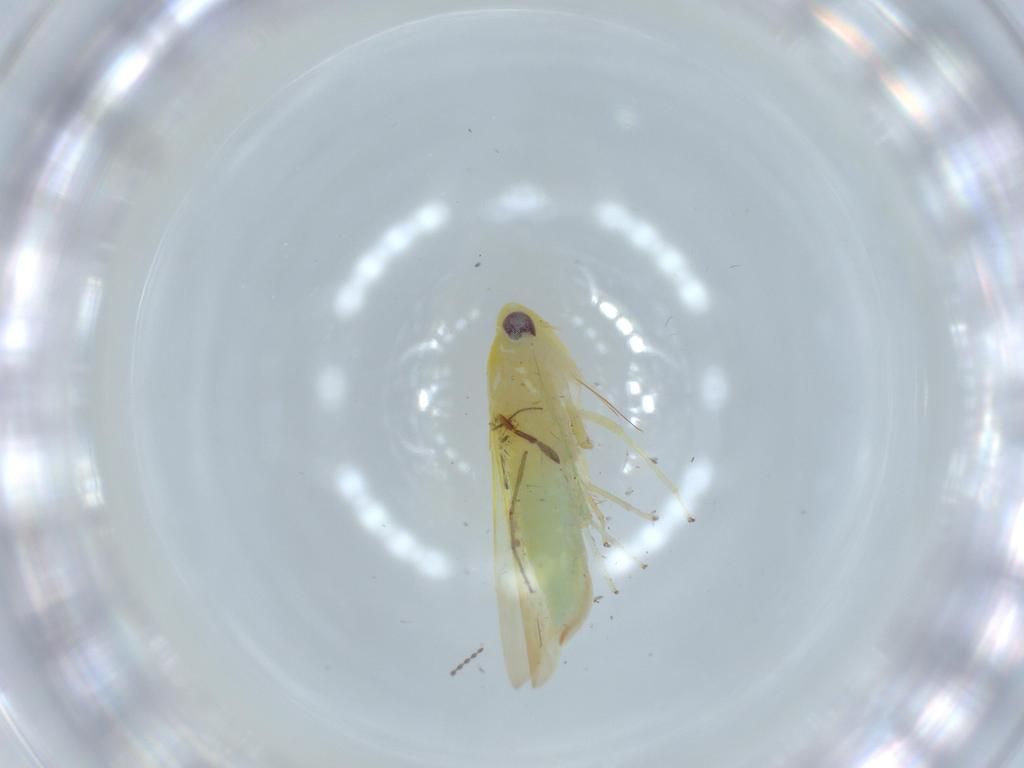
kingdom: Animalia
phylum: Arthropoda
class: Insecta
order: Hemiptera
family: Cicadellidae
